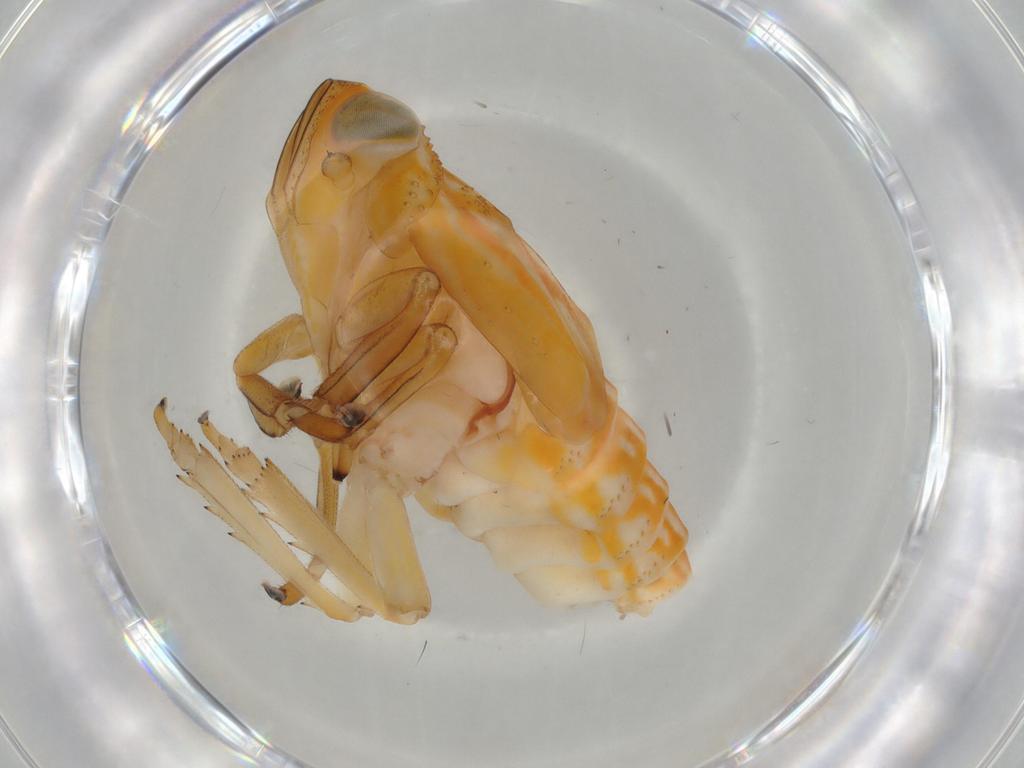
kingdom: Animalia
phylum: Arthropoda
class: Insecta
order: Hemiptera
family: Issidae
